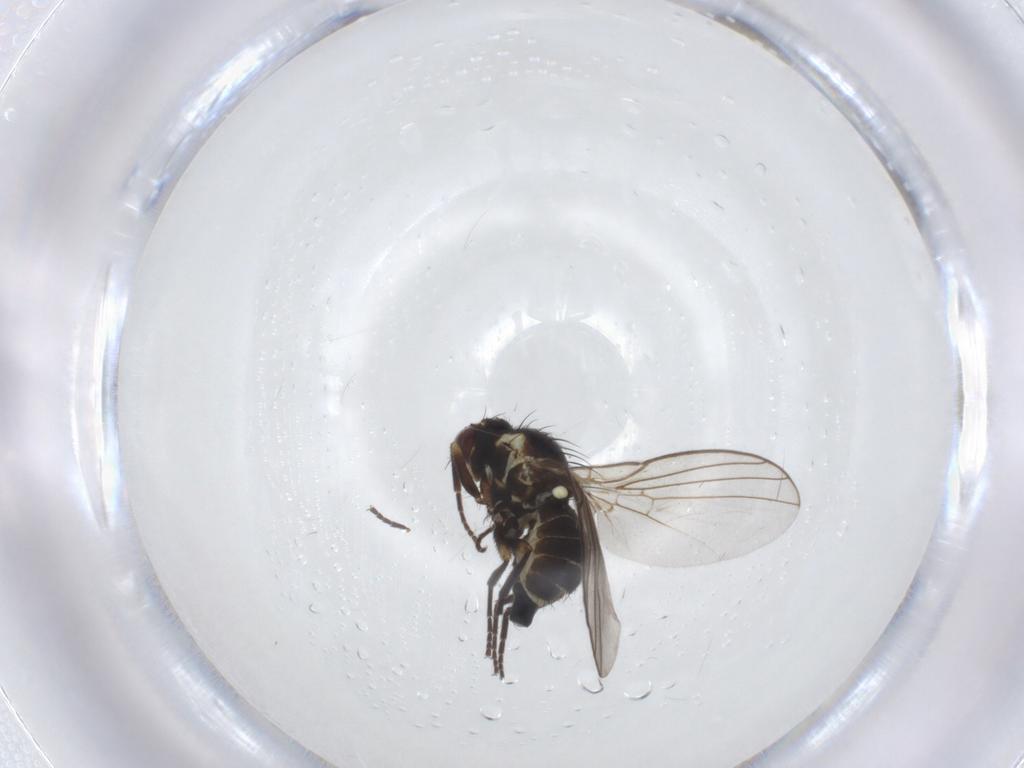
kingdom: Animalia
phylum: Arthropoda
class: Insecta
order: Diptera
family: Agromyzidae
